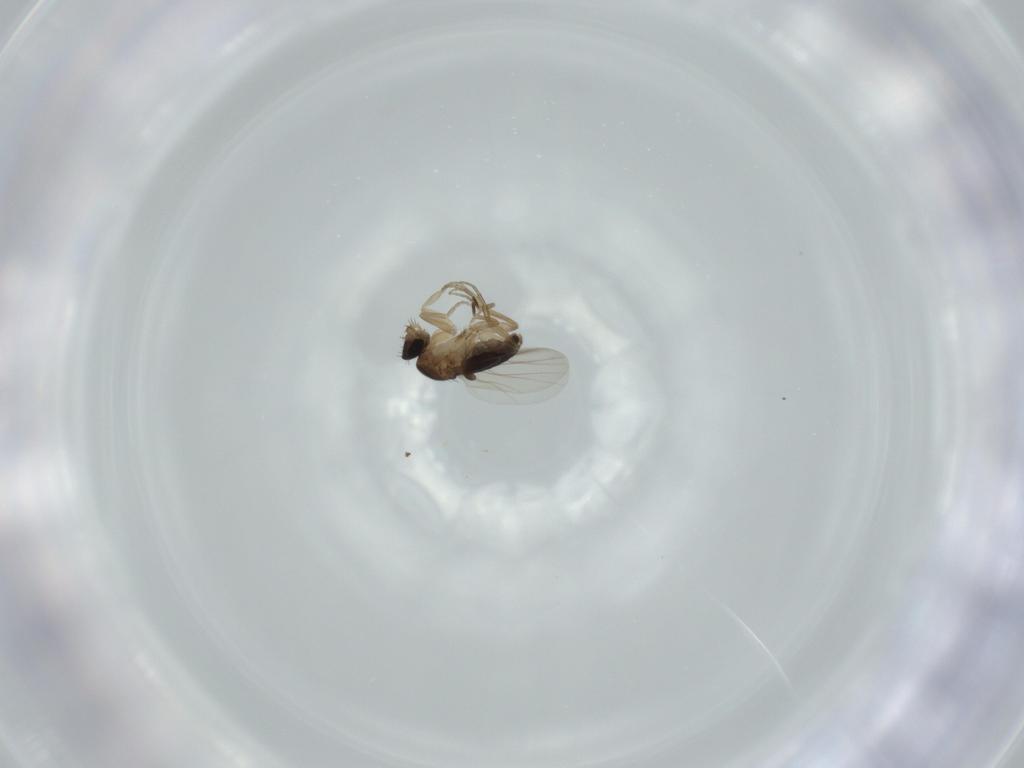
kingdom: Animalia
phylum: Arthropoda
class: Insecta
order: Diptera
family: Phoridae
